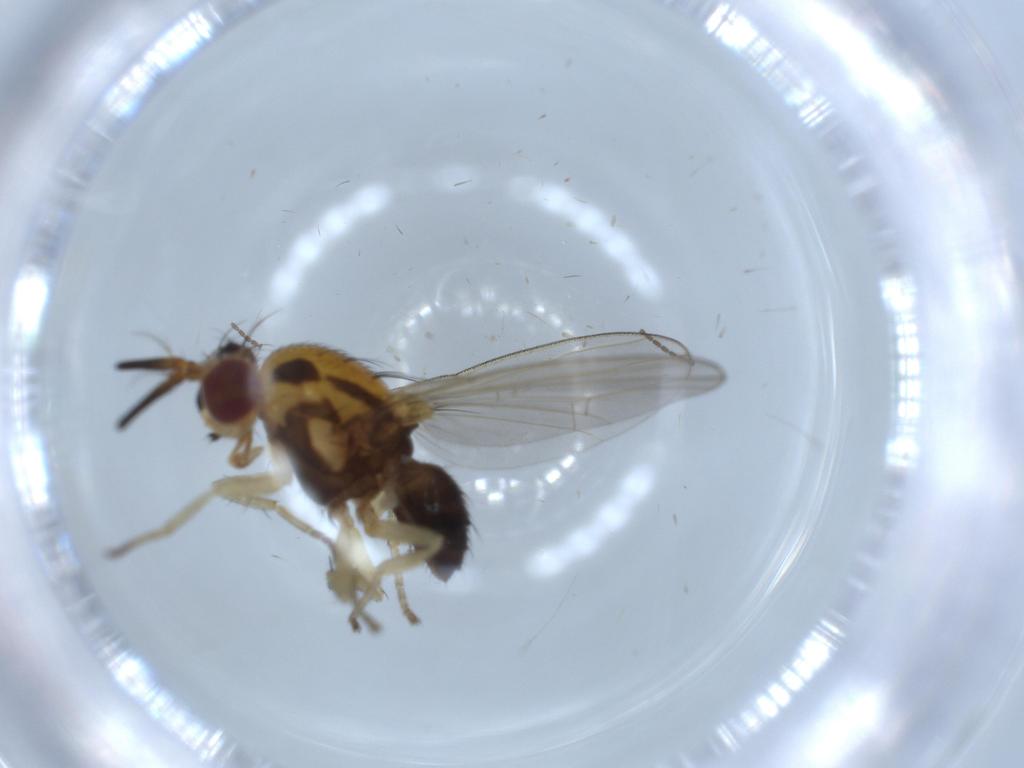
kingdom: Animalia
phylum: Arthropoda
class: Insecta
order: Diptera
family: Lauxaniidae
